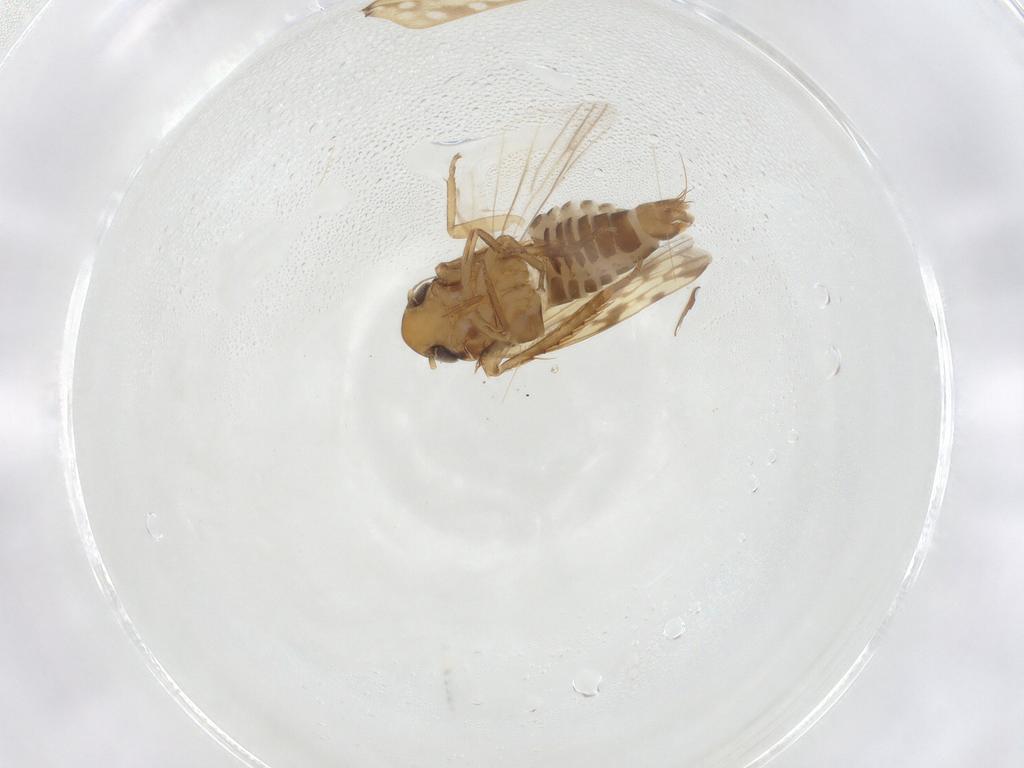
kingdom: Animalia
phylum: Arthropoda
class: Insecta
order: Hemiptera
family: Cicadellidae
